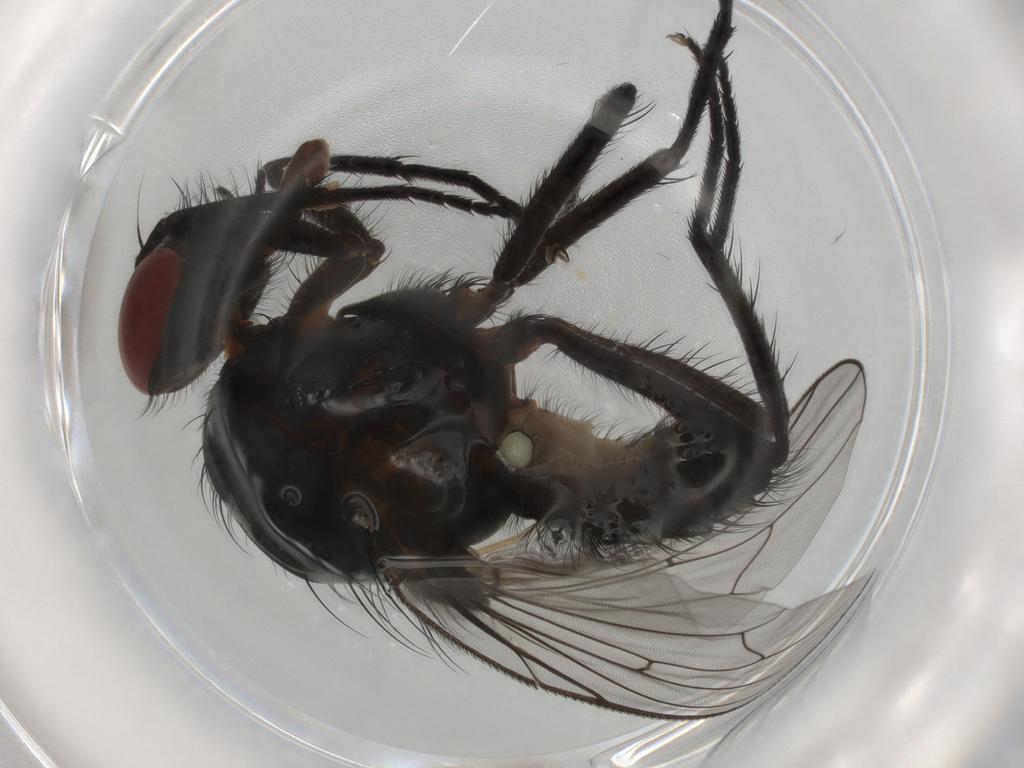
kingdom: Animalia
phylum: Arthropoda
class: Insecta
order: Diptera
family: Anthomyiidae
